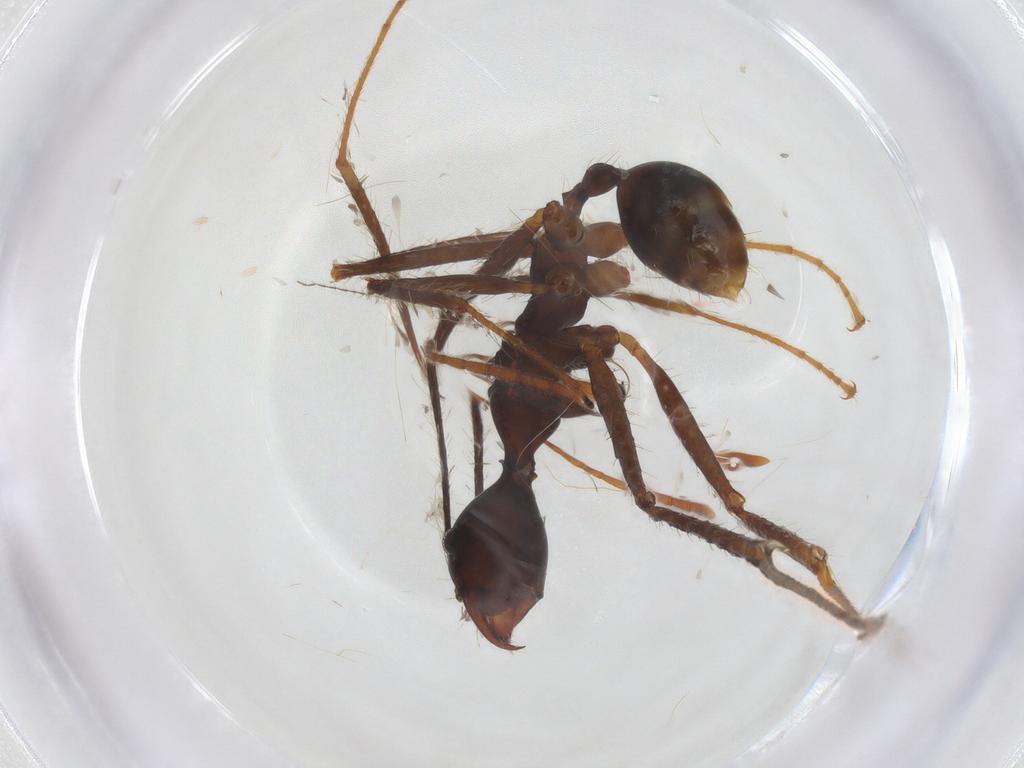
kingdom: Animalia
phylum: Arthropoda
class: Insecta
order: Hymenoptera
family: Formicidae
